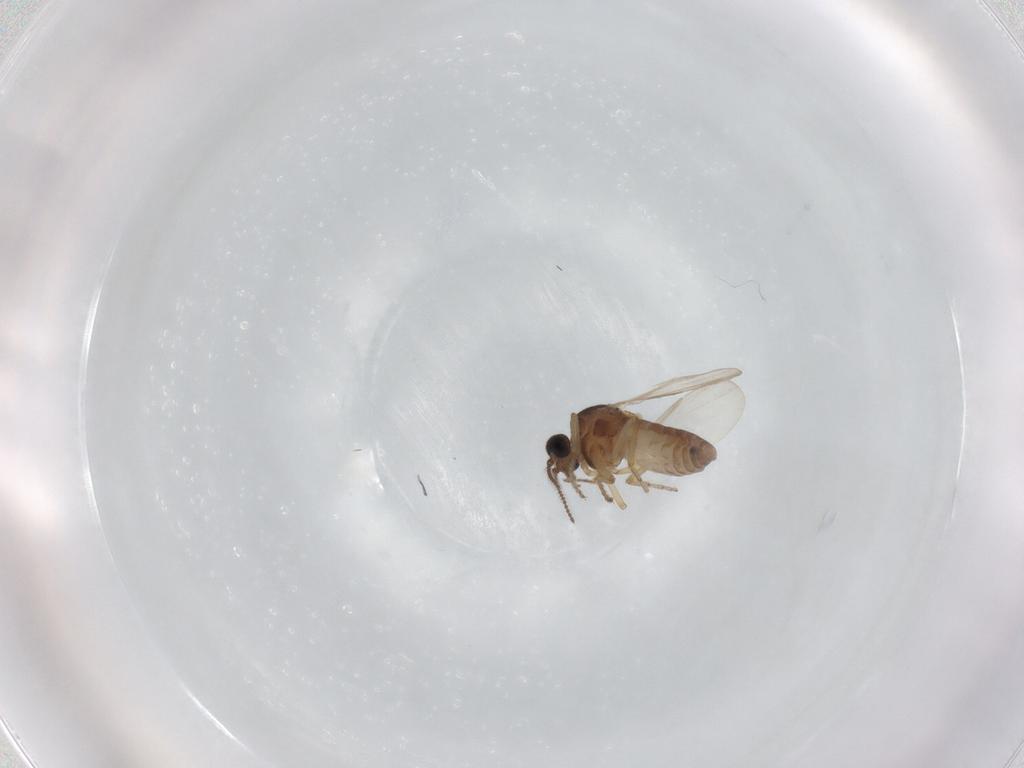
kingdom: Animalia
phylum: Arthropoda
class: Insecta
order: Diptera
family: Ceratopogonidae
